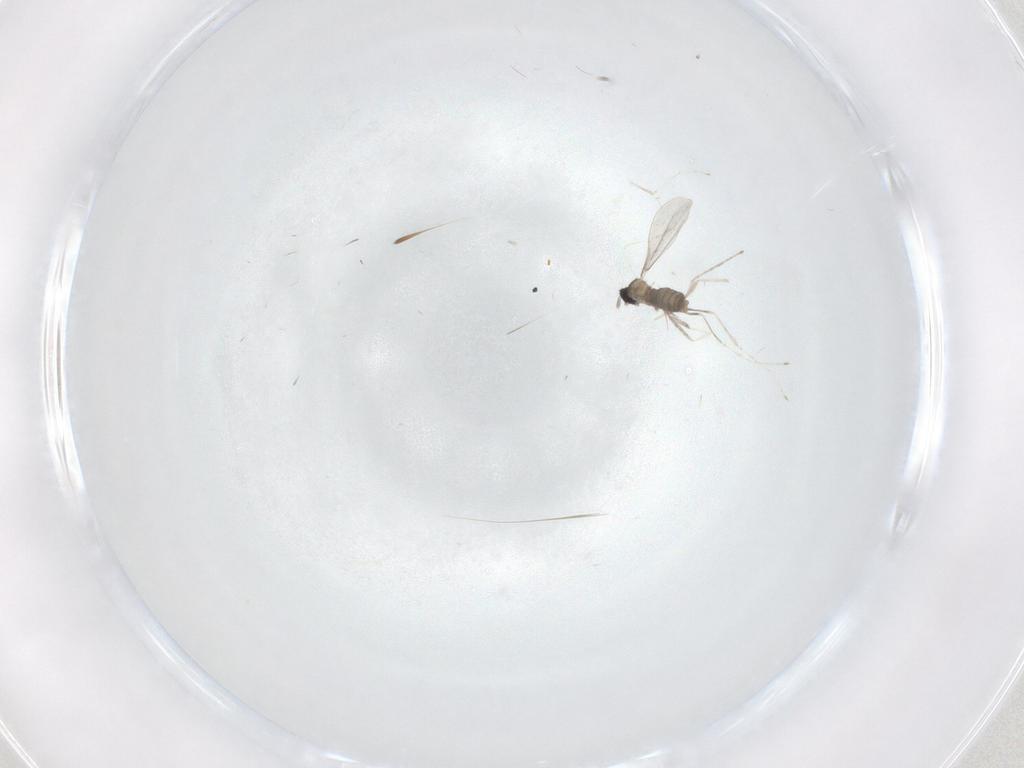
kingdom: Animalia
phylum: Arthropoda
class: Insecta
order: Diptera
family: Cecidomyiidae
